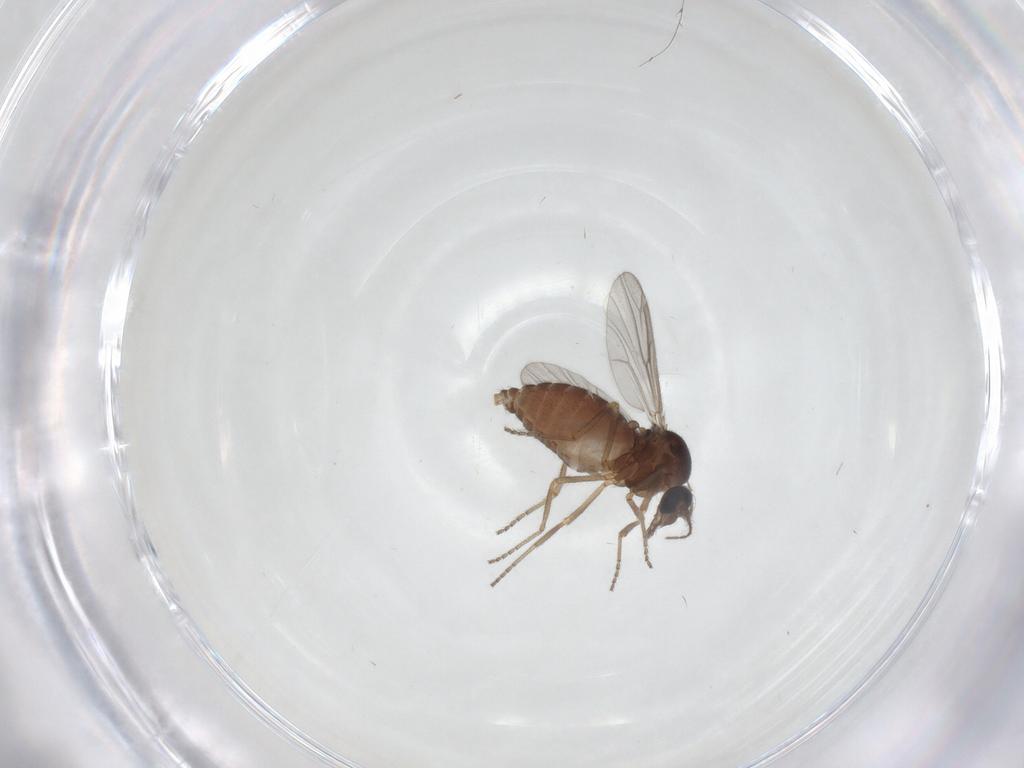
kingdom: Animalia
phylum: Arthropoda
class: Insecta
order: Diptera
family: Ceratopogonidae
